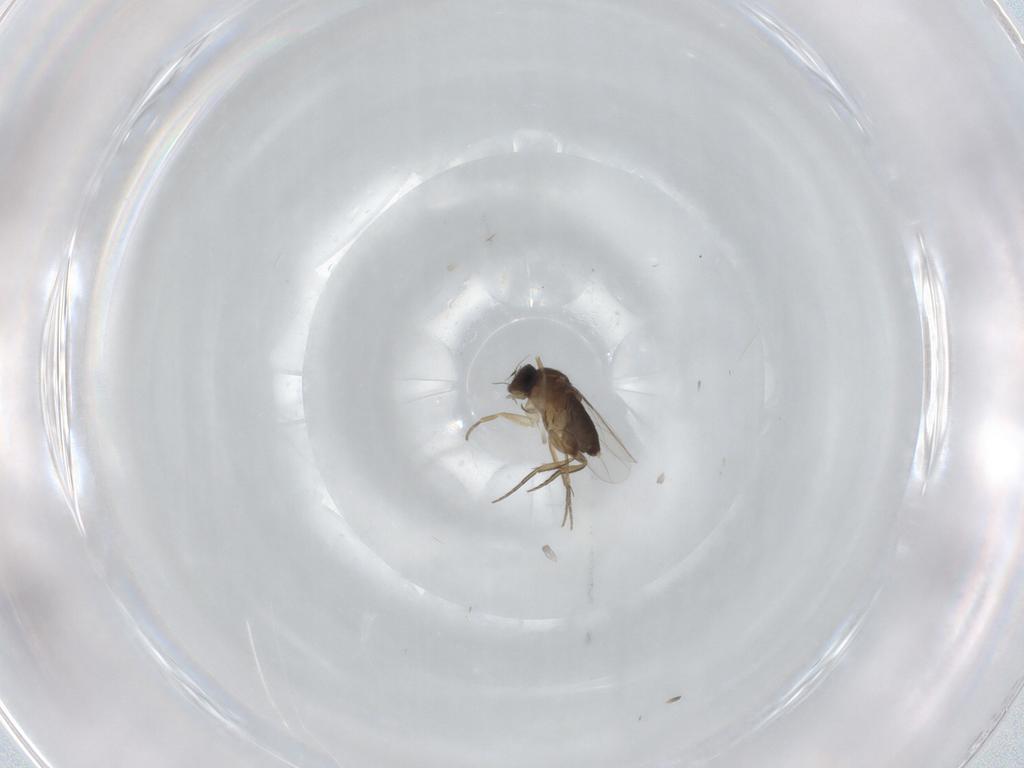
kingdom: Animalia
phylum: Arthropoda
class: Insecta
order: Diptera
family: Phoridae
